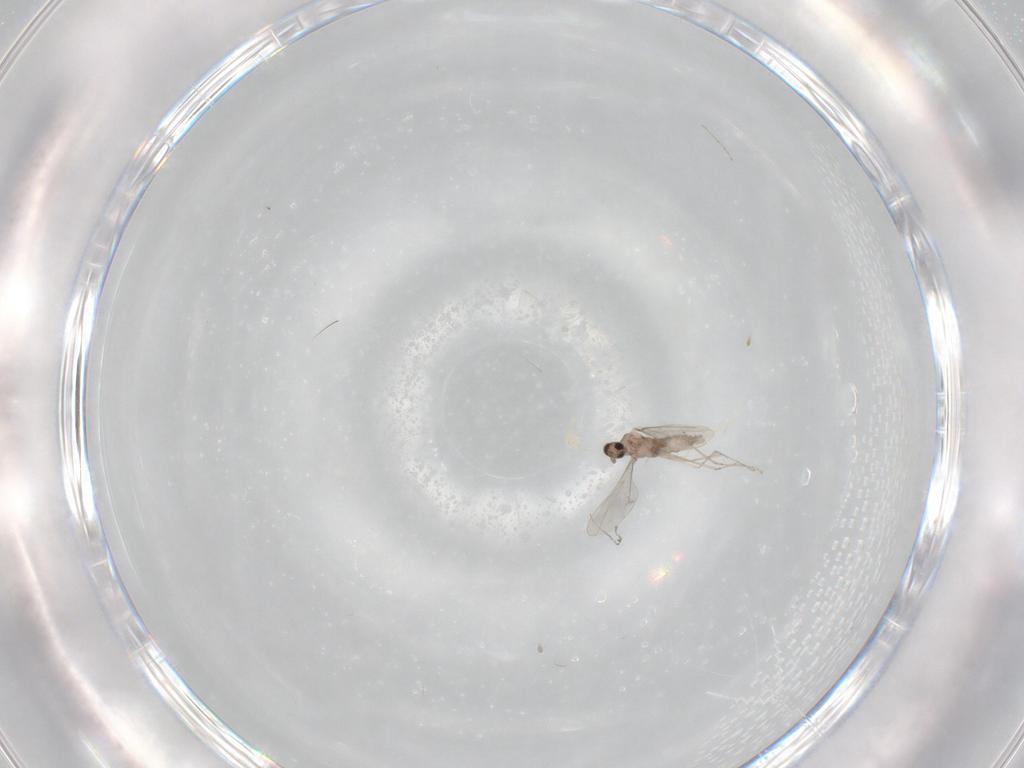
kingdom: Animalia
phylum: Arthropoda
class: Insecta
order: Diptera
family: Cecidomyiidae
